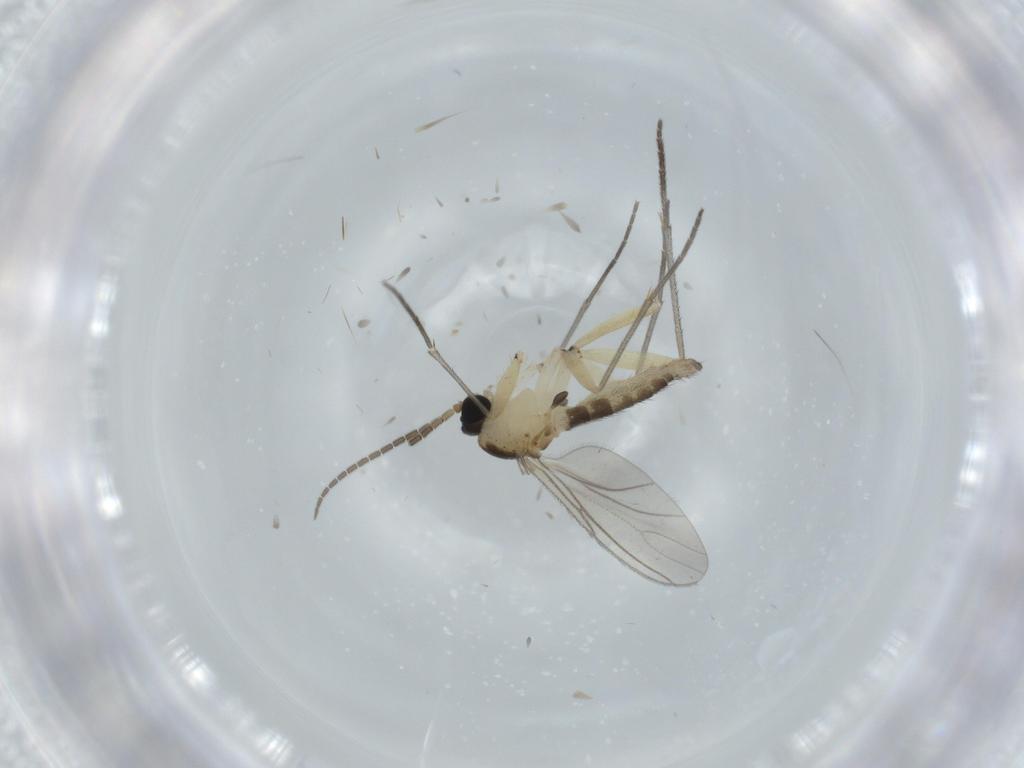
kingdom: Animalia
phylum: Arthropoda
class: Insecta
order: Diptera
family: Sciaridae
